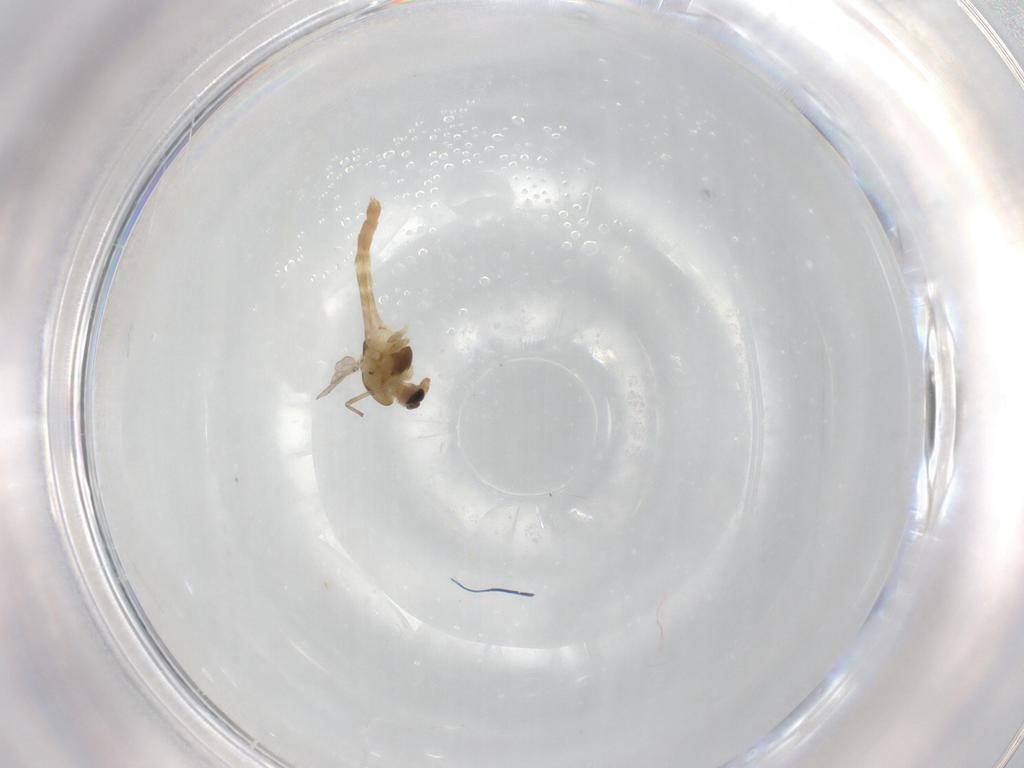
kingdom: Animalia
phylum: Arthropoda
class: Insecta
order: Diptera
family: Chironomidae
